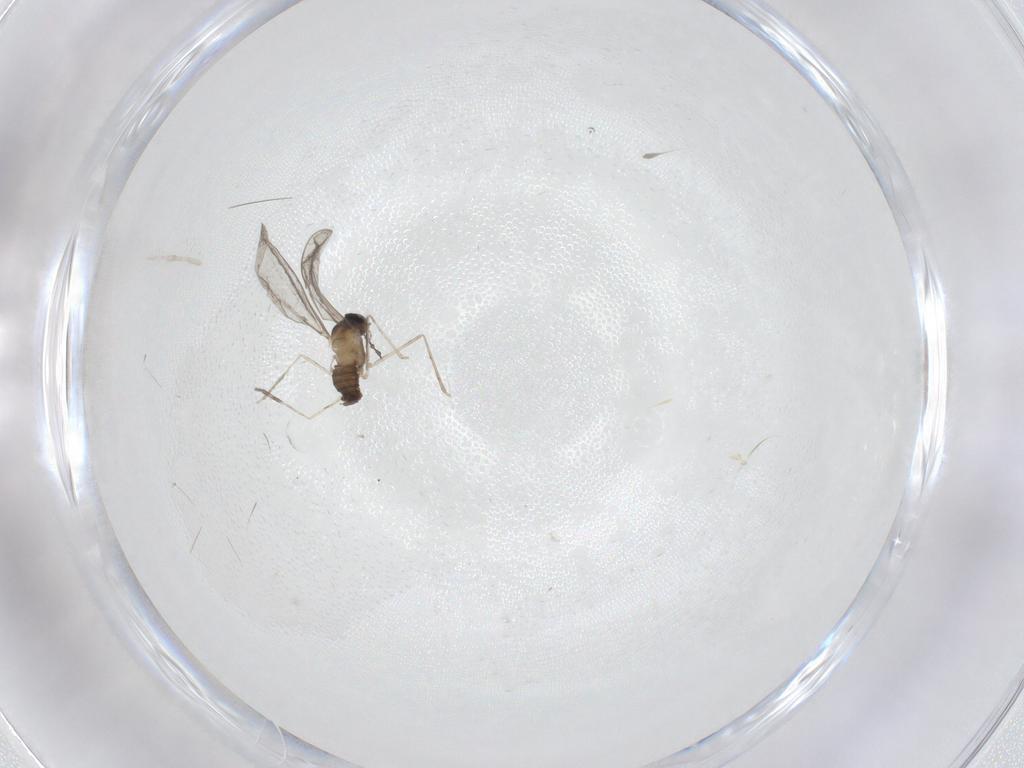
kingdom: Animalia
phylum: Arthropoda
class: Insecta
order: Diptera
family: Cecidomyiidae
